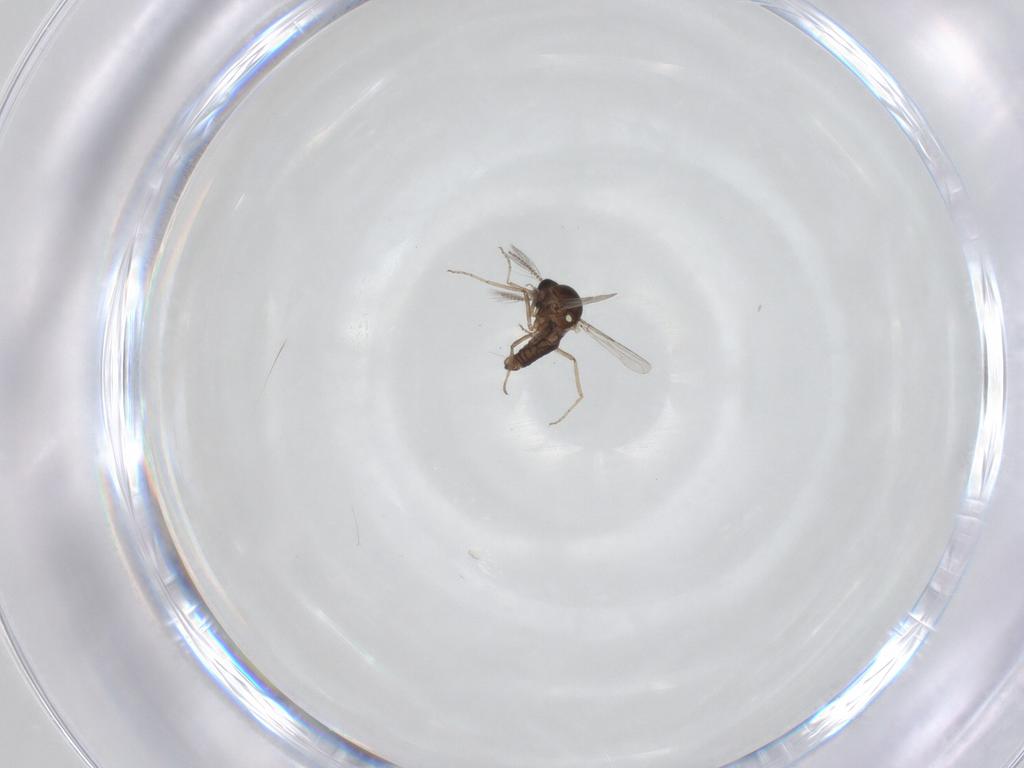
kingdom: Animalia
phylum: Arthropoda
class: Insecta
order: Diptera
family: Ceratopogonidae
